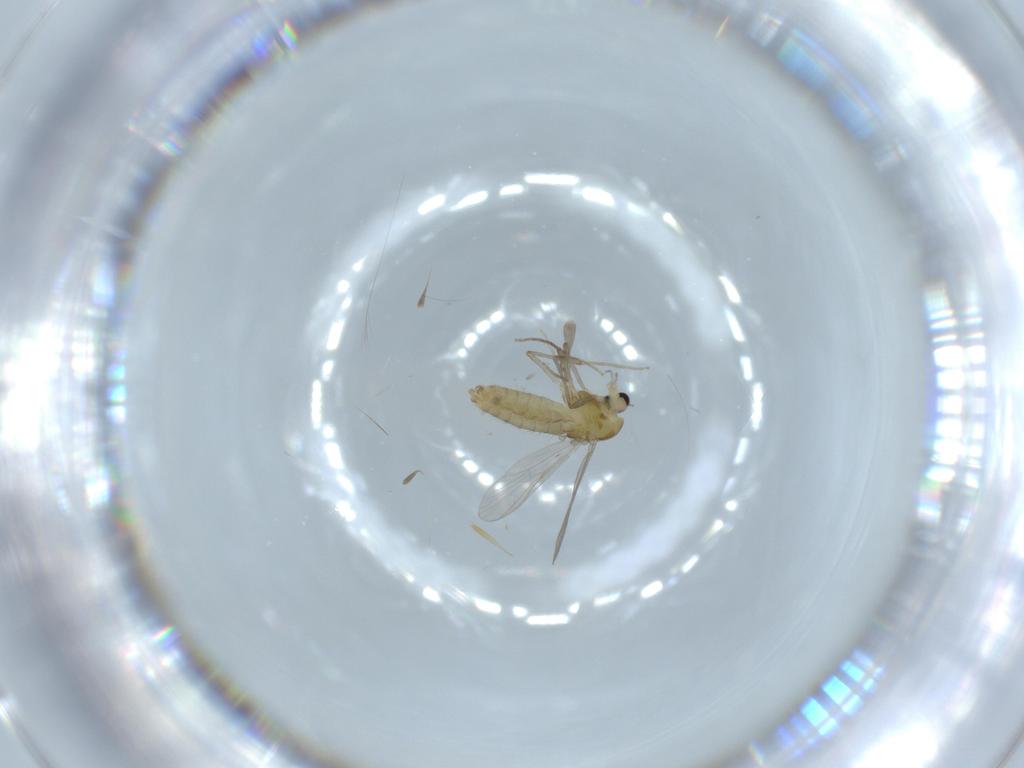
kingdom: Animalia
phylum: Arthropoda
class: Insecta
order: Diptera
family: Chironomidae
